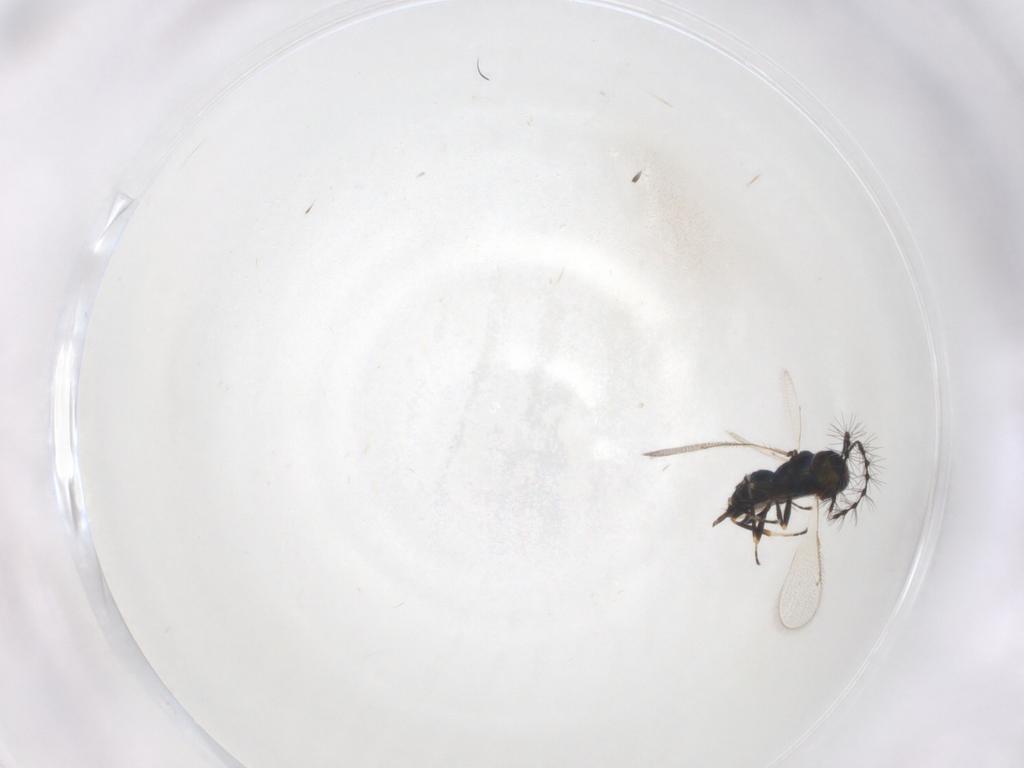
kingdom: Animalia
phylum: Arthropoda
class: Insecta
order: Hymenoptera
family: Eulophidae
